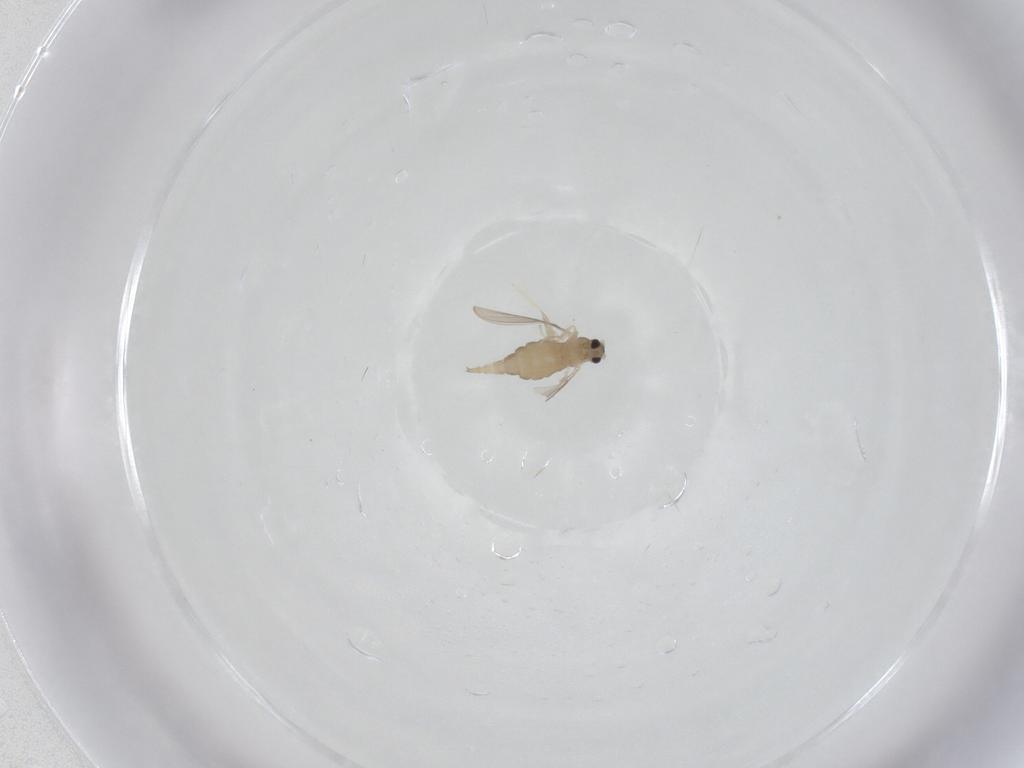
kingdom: Animalia
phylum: Arthropoda
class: Insecta
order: Diptera
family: Cecidomyiidae
